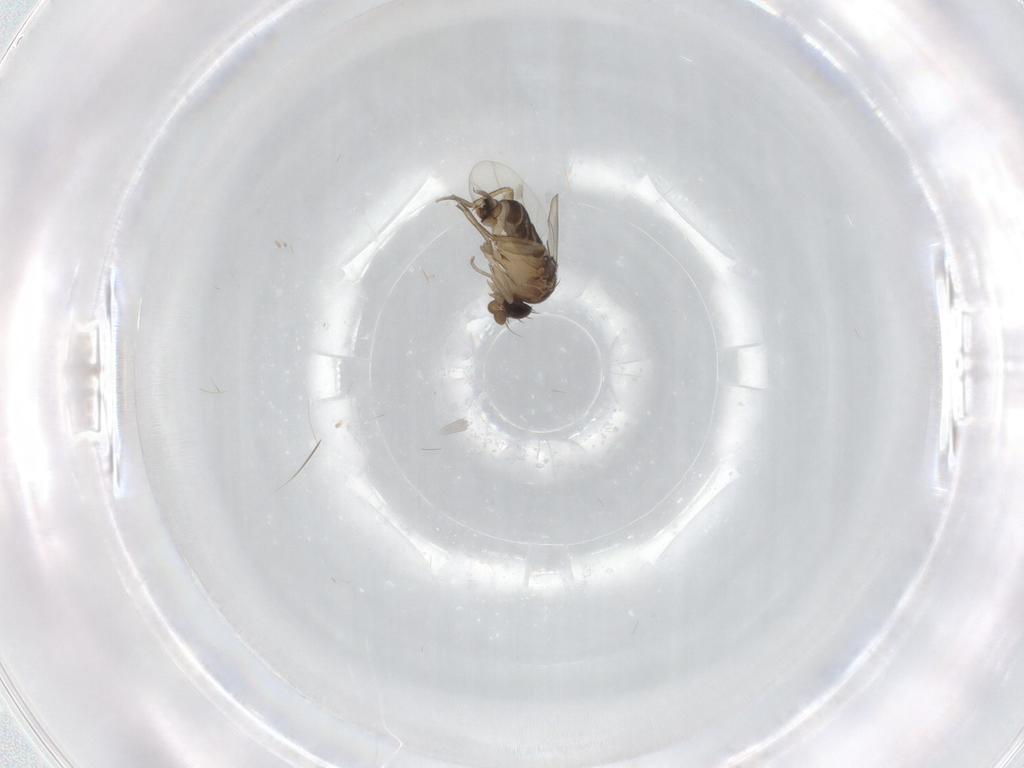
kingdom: Animalia
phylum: Arthropoda
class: Insecta
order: Diptera
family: Phoridae
